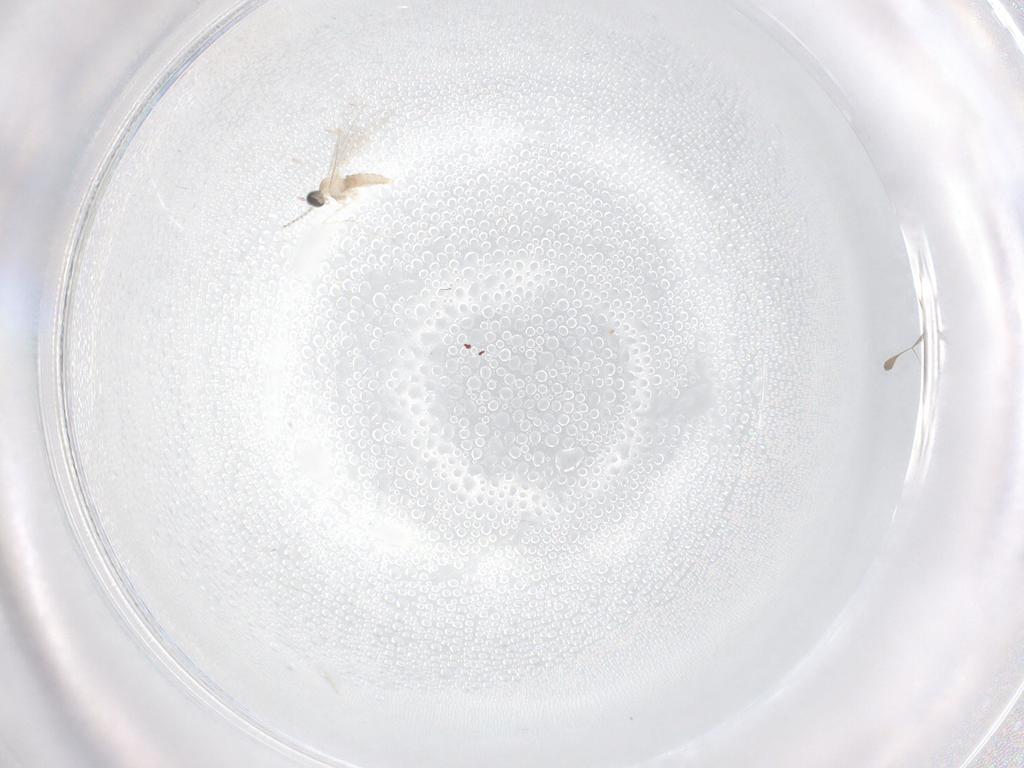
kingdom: Animalia
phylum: Arthropoda
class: Insecta
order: Diptera
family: Cecidomyiidae
